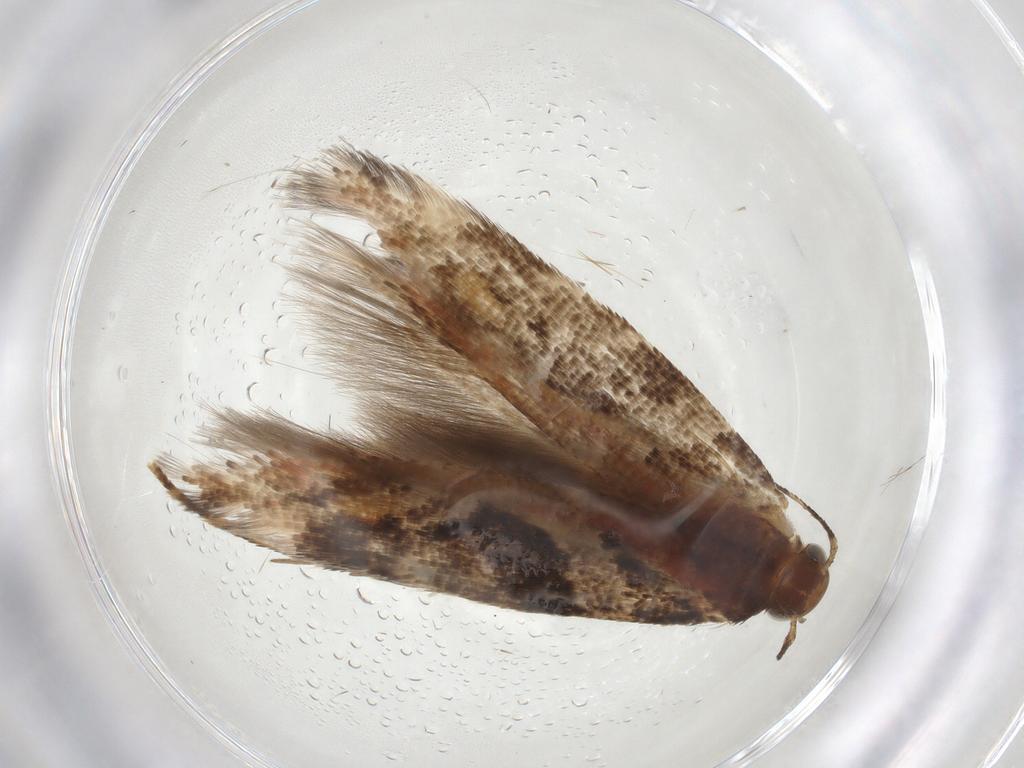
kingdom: Animalia
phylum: Arthropoda
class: Insecta
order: Lepidoptera
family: Gelechiidae
